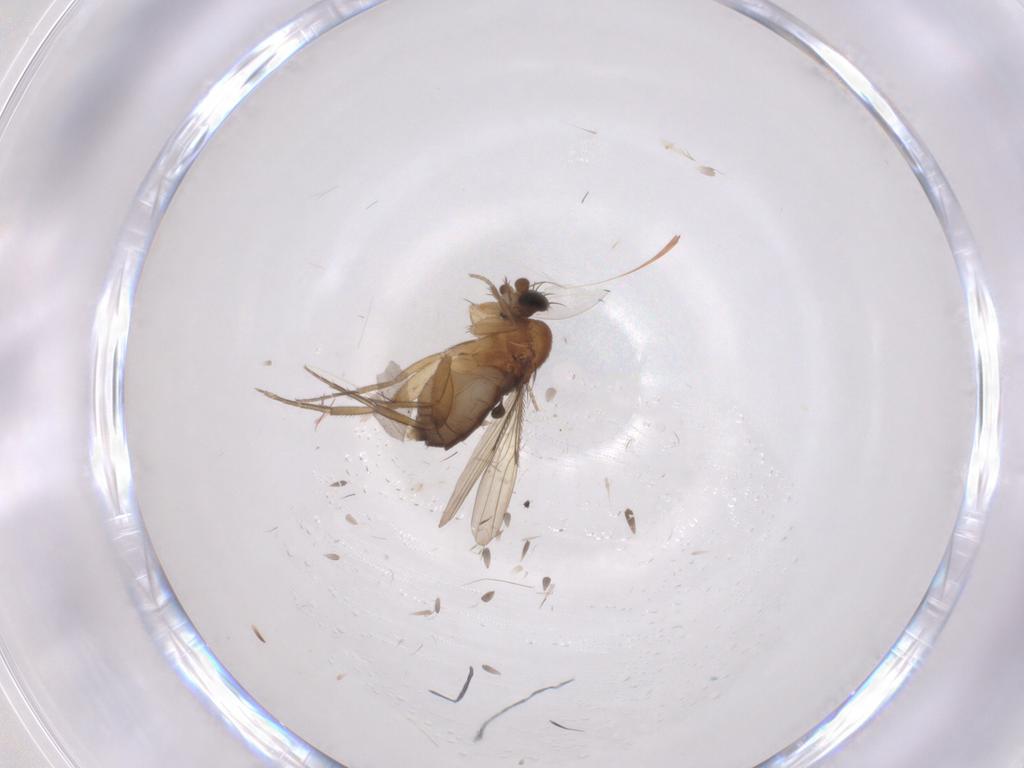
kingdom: Animalia
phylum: Arthropoda
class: Insecta
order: Diptera
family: Phoridae
